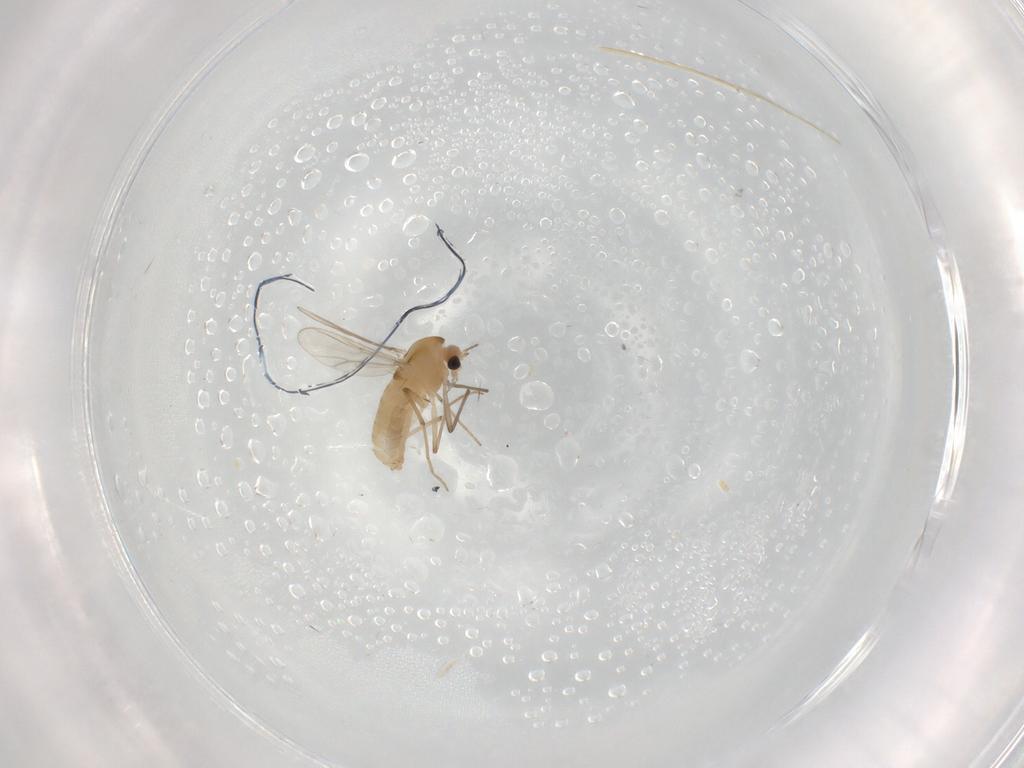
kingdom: Animalia
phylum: Arthropoda
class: Insecta
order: Diptera
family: Chironomidae
